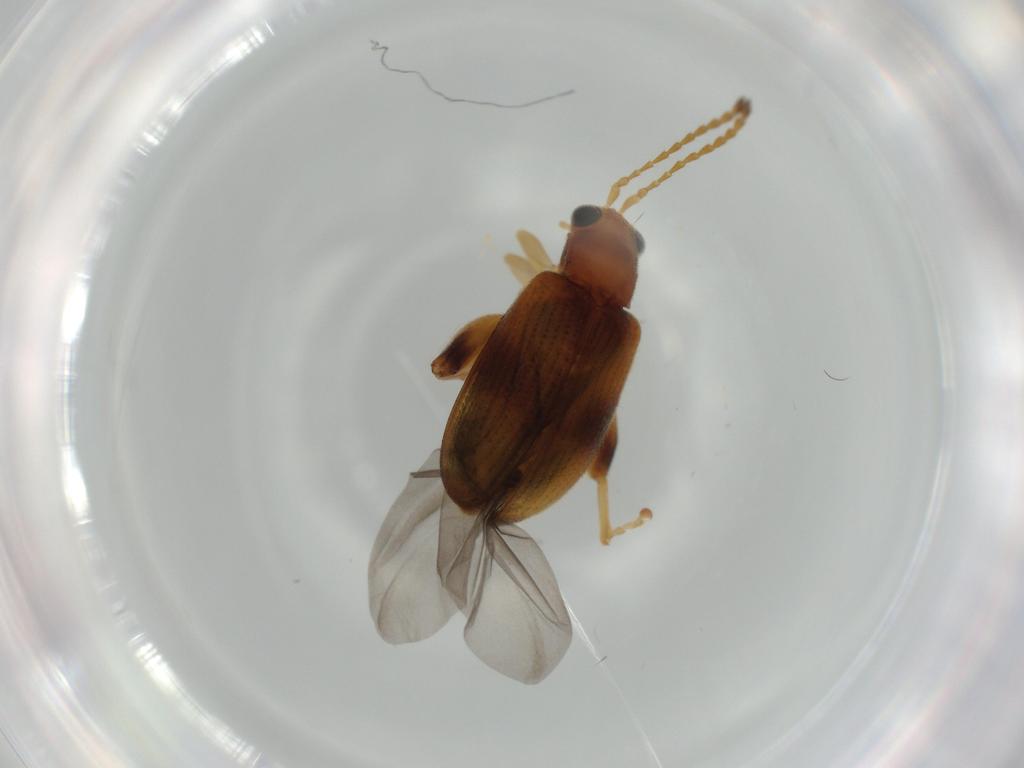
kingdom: Animalia
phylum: Arthropoda
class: Insecta
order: Coleoptera
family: Chrysomelidae
